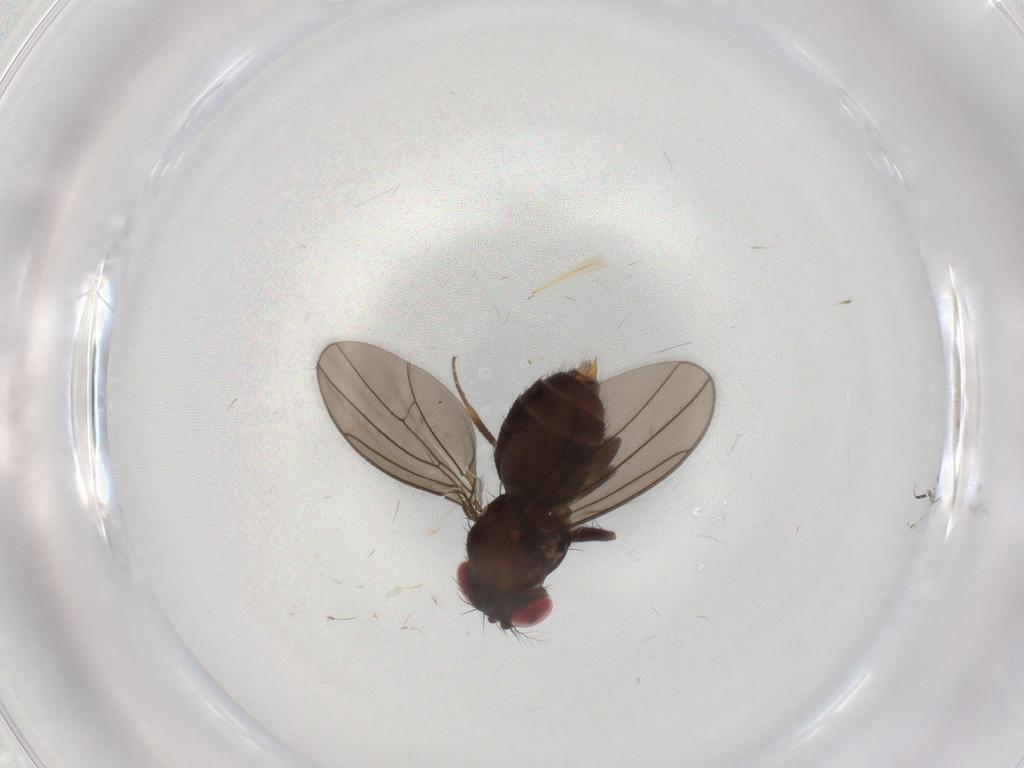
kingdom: Animalia
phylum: Arthropoda
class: Insecta
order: Diptera
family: Drosophilidae
